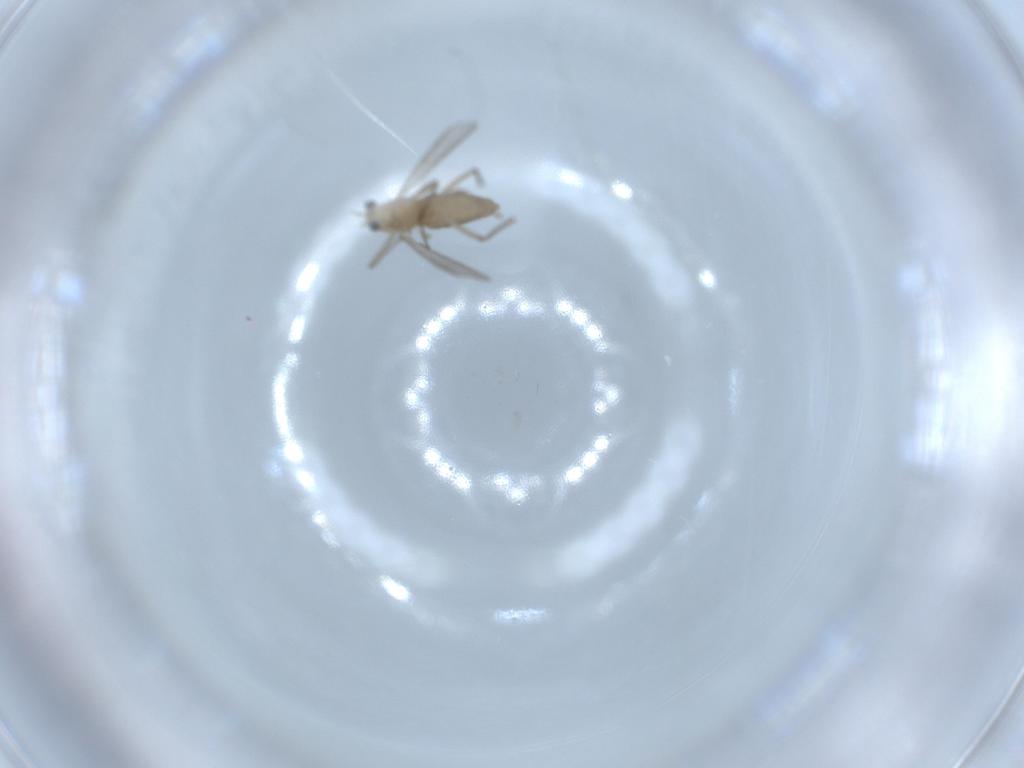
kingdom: Animalia
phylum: Arthropoda
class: Insecta
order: Diptera
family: Chironomidae
